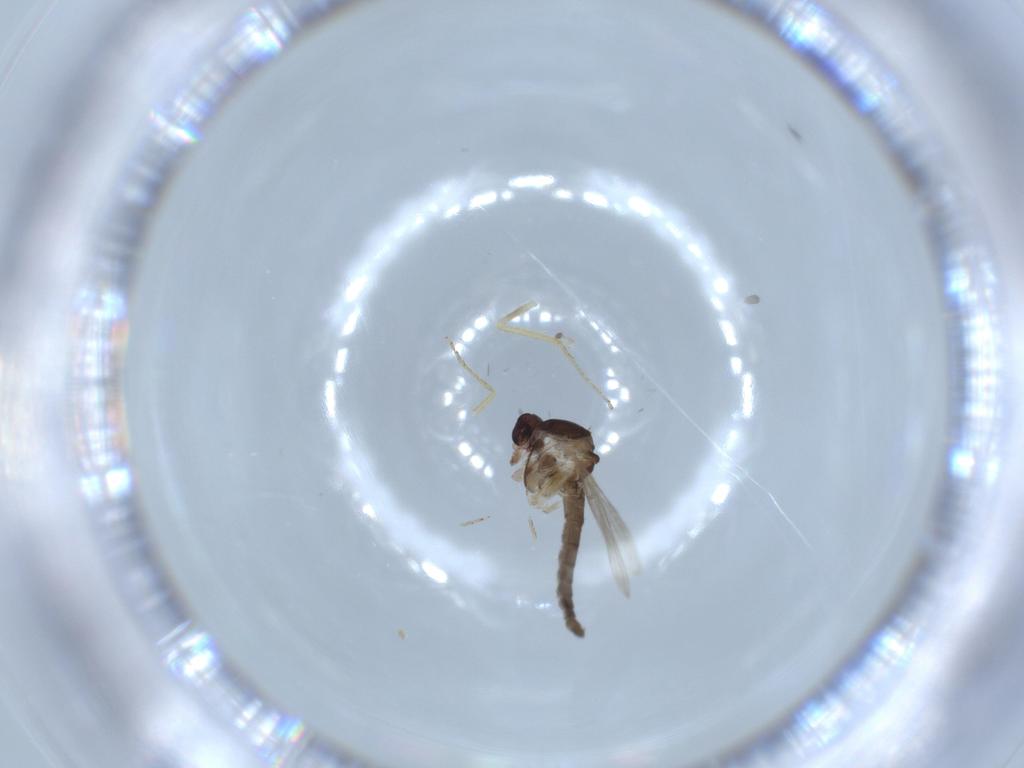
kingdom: Animalia
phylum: Arthropoda
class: Insecta
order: Diptera
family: Ceratopogonidae
